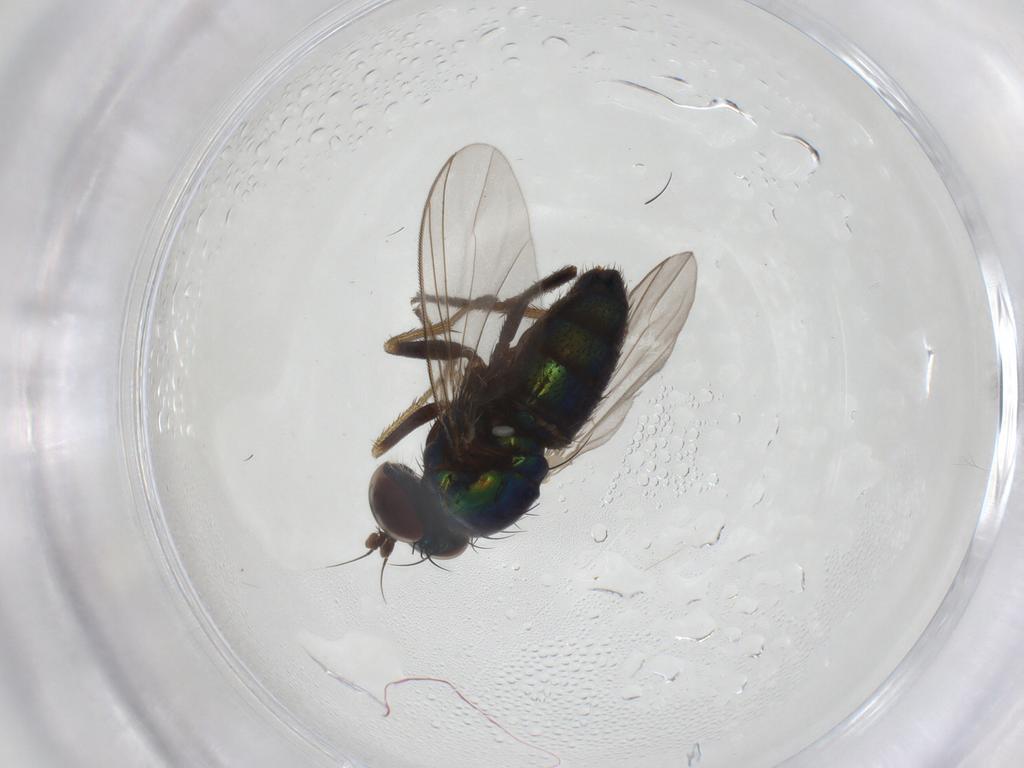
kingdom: Animalia
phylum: Arthropoda
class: Insecta
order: Diptera
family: Dolichopodidae
